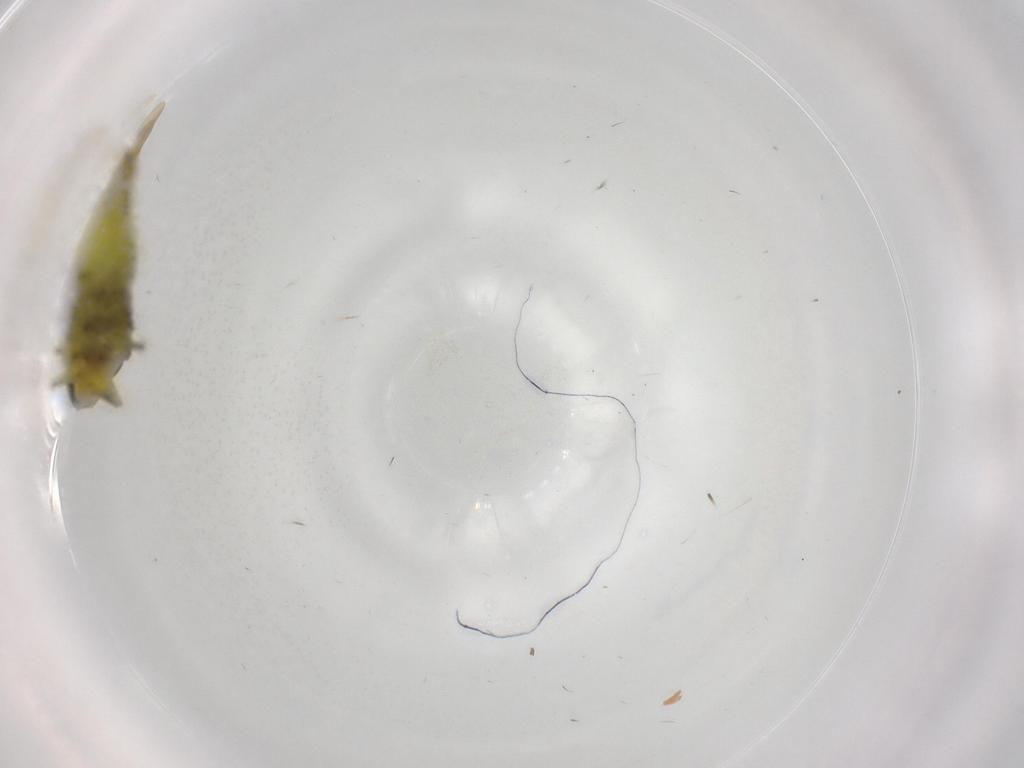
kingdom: Animalia
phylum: Arthropoda
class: Insecta
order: Hemiptera
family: Cicadellidae
